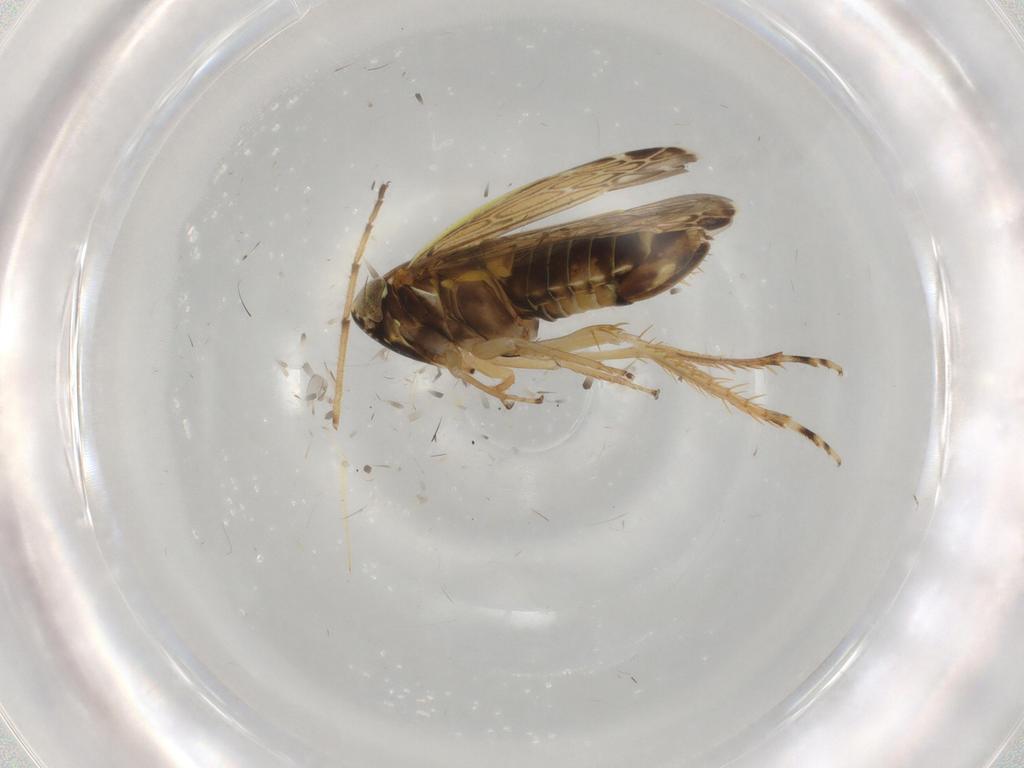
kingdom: Animalia
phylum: Arthropoda
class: Insecta
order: Hemiptera
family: Cicadellidae
